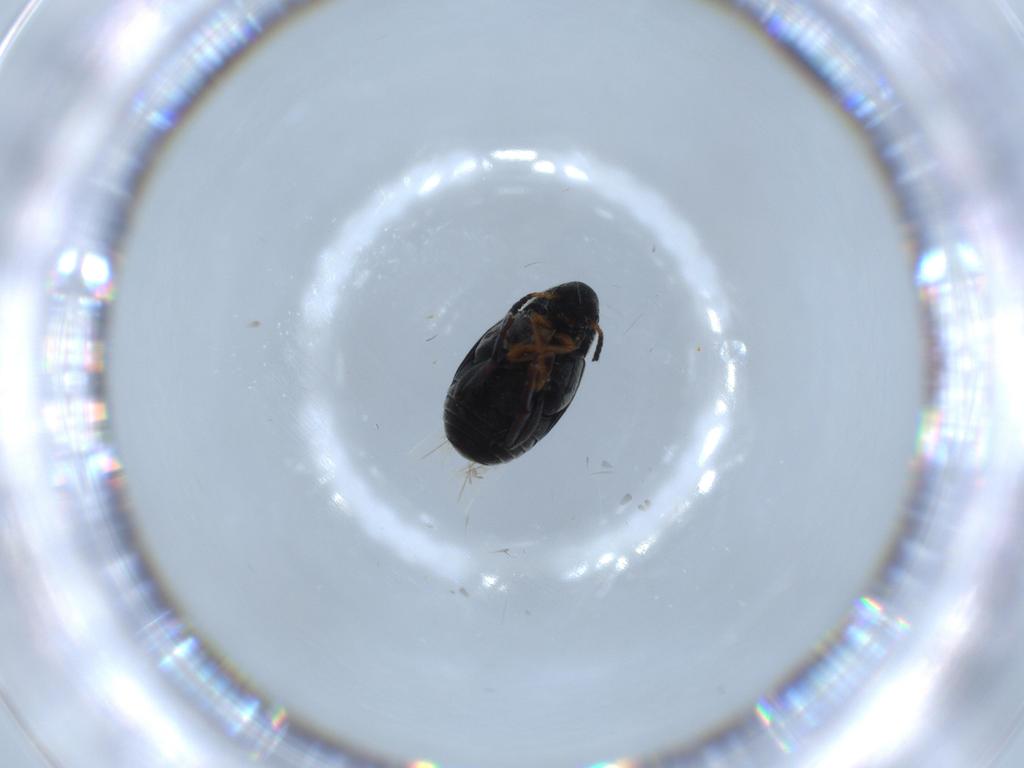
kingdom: Animalia
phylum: Arthropoda
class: Insecta
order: Coleoptera
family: Chrysomelidae
